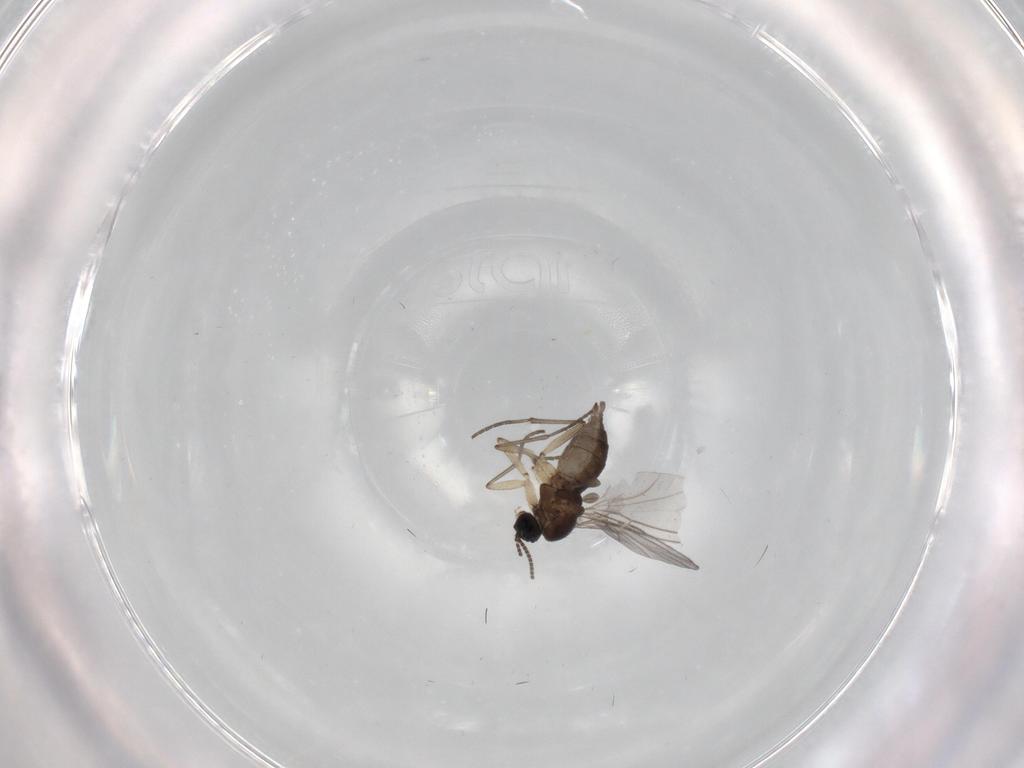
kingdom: Animalia
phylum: Arthropoda
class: Insecta
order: Diptera
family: Sciaridae
